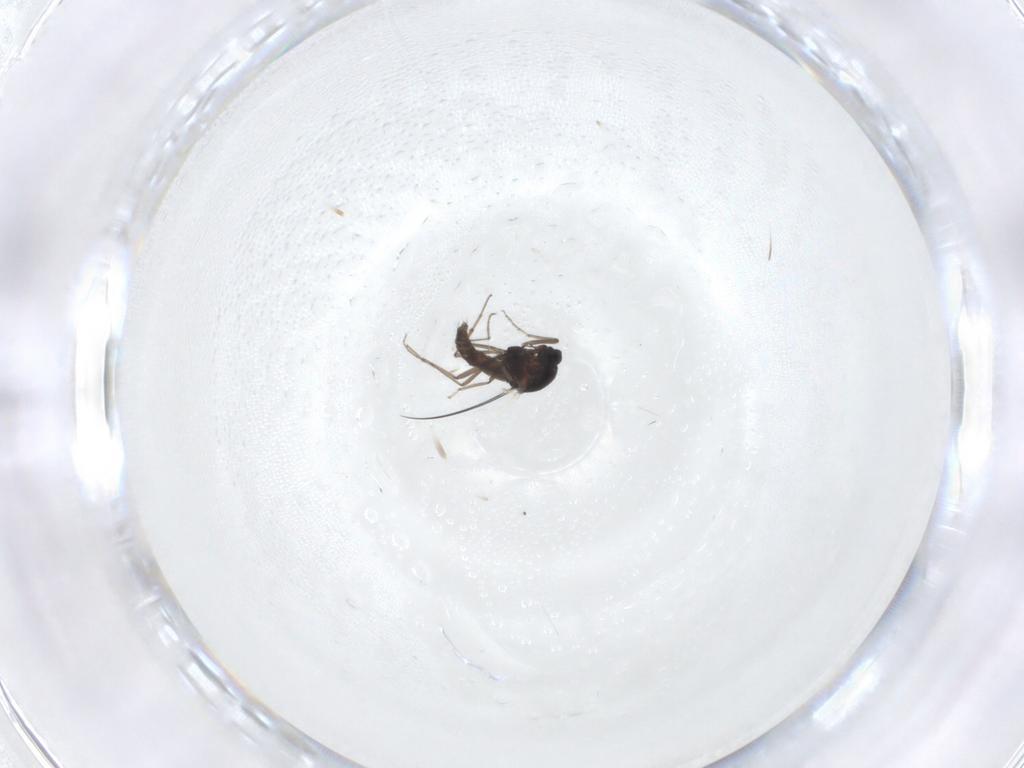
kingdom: Animalia
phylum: Arthropoda
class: Insecta
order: Diptera
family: Ceratopogonidae
